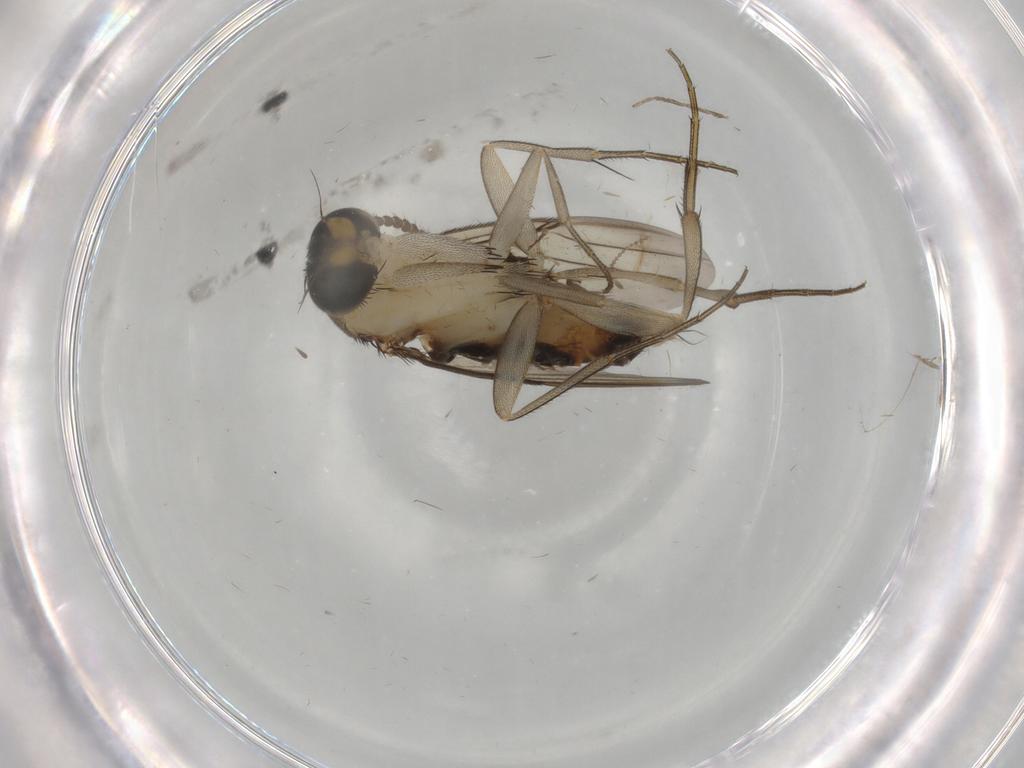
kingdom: Animalia
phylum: Arthropoda
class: Insecta
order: Diptera
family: Phoridae
